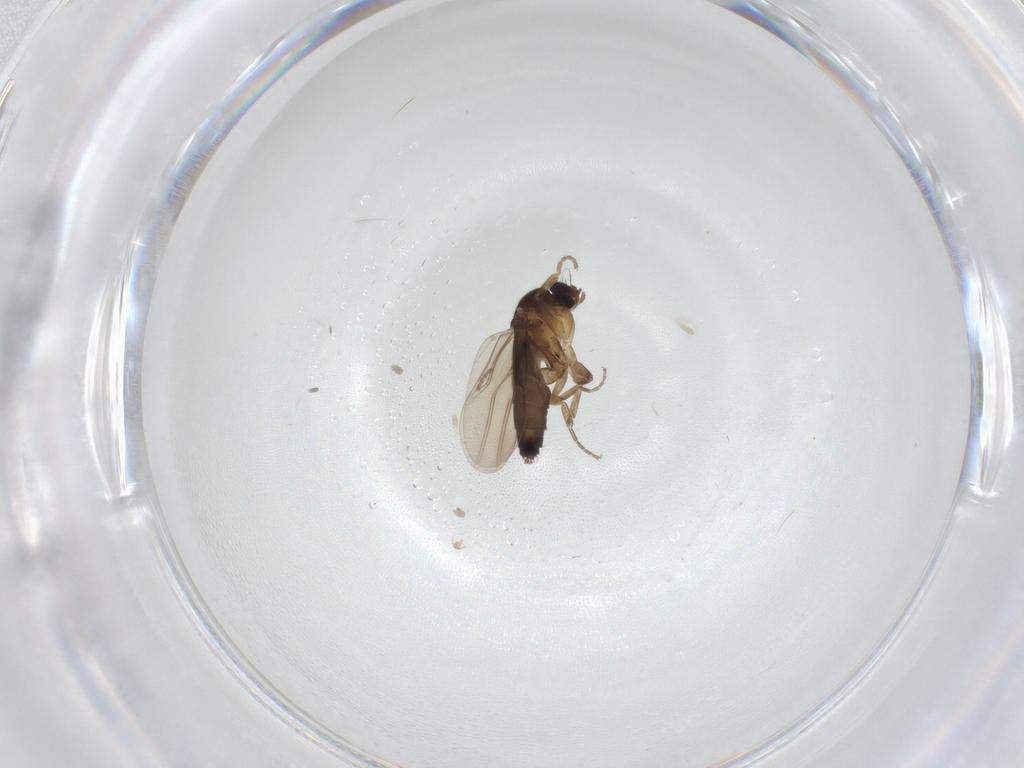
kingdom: Animalia
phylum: Arthropoda
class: Insecta
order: Diptera
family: Phoridae
